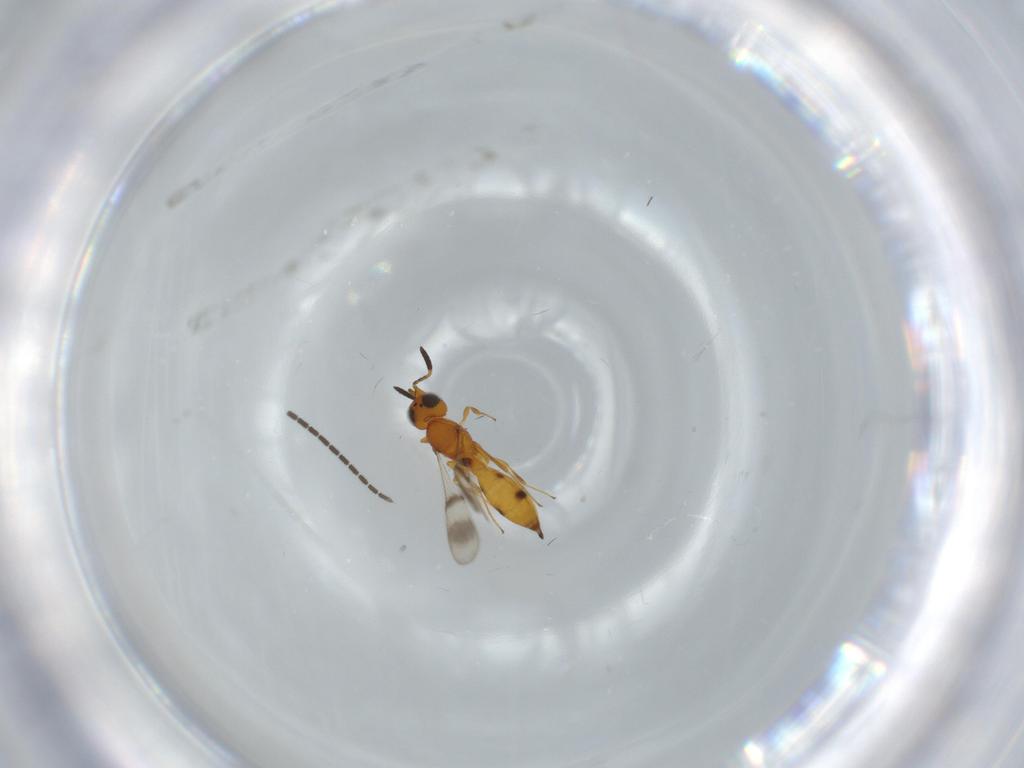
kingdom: Animalia
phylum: Arthropoda
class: Insecta
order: Hymenoptera
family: Scelionidae
